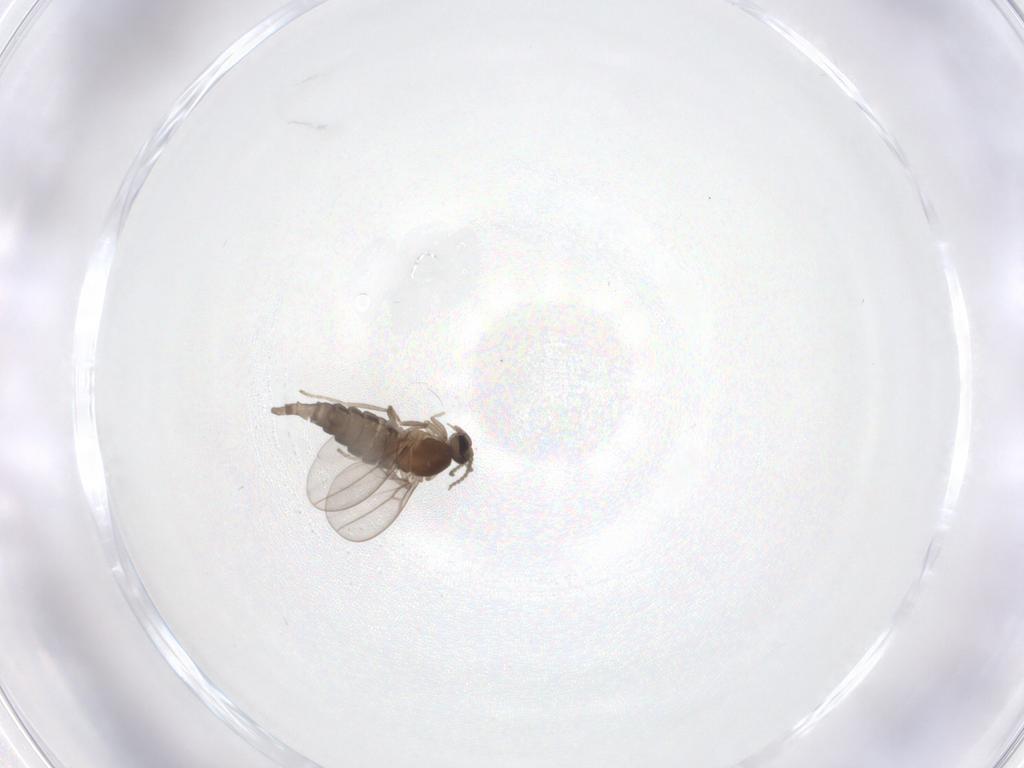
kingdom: Animalia
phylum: Arthropoda
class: Insecta
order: Diptera
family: Cecidomyiidae
